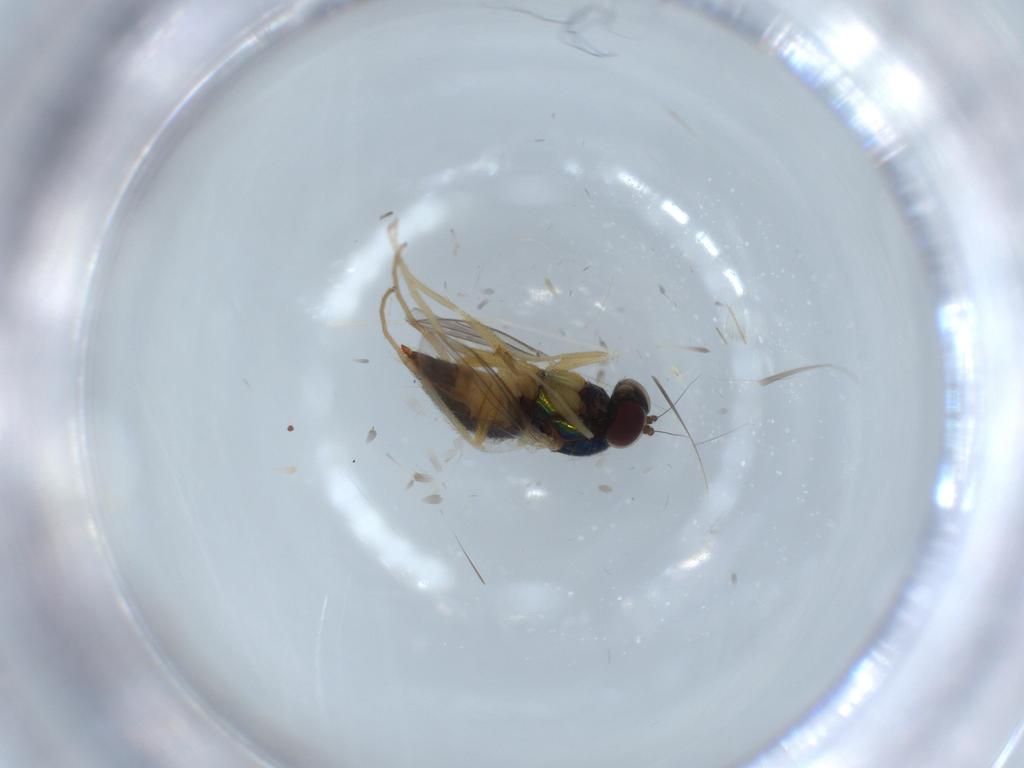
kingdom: Animalia
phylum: Arthropoda
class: Insecta
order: Diptera
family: Dolichopodidae
